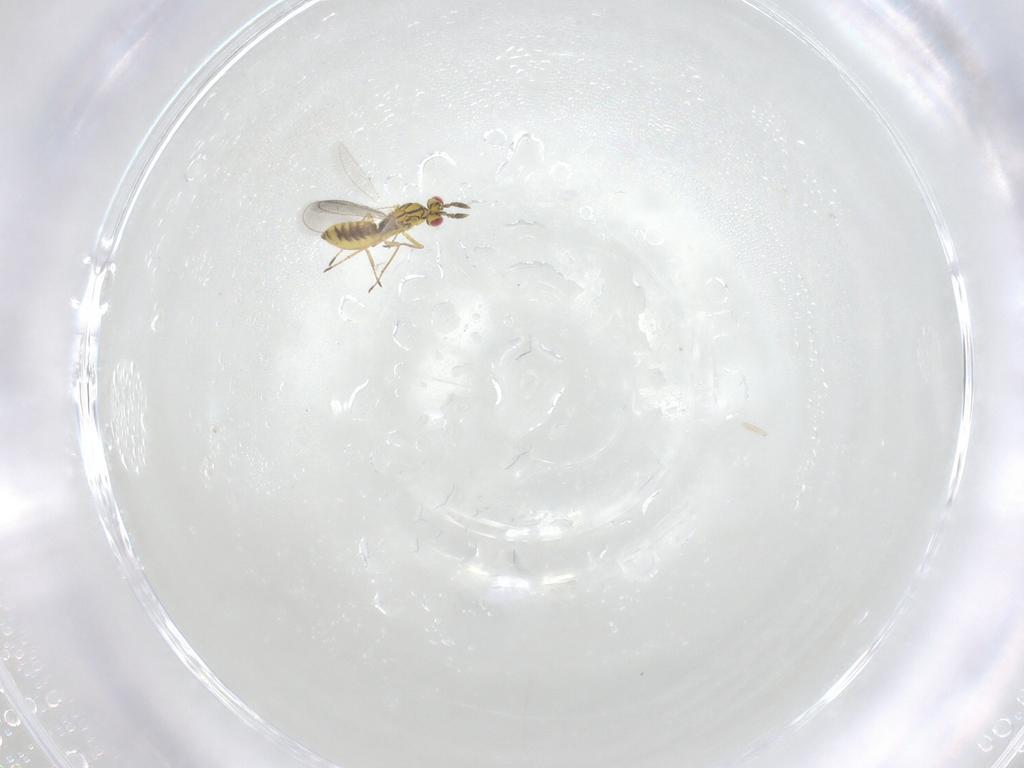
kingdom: Animalia
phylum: Arthropoda
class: Insecta
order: Hymenoptera
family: Eulophidae
